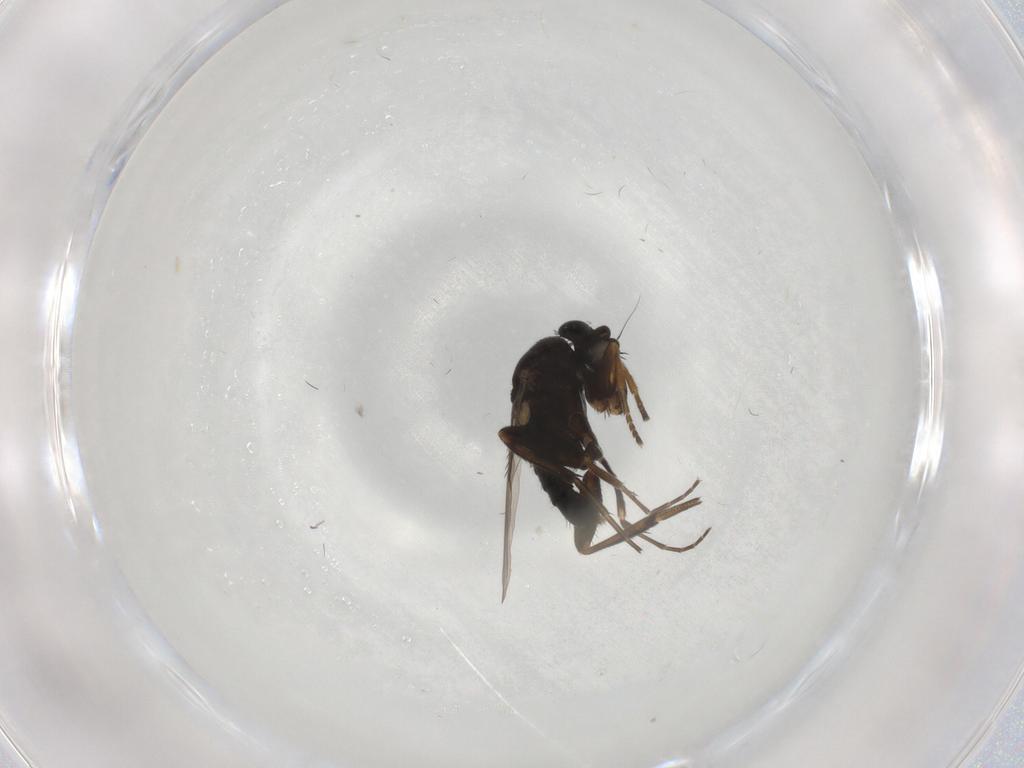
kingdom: Animalia
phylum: Arthropoda
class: Insecta
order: Diptera
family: Phoridae
